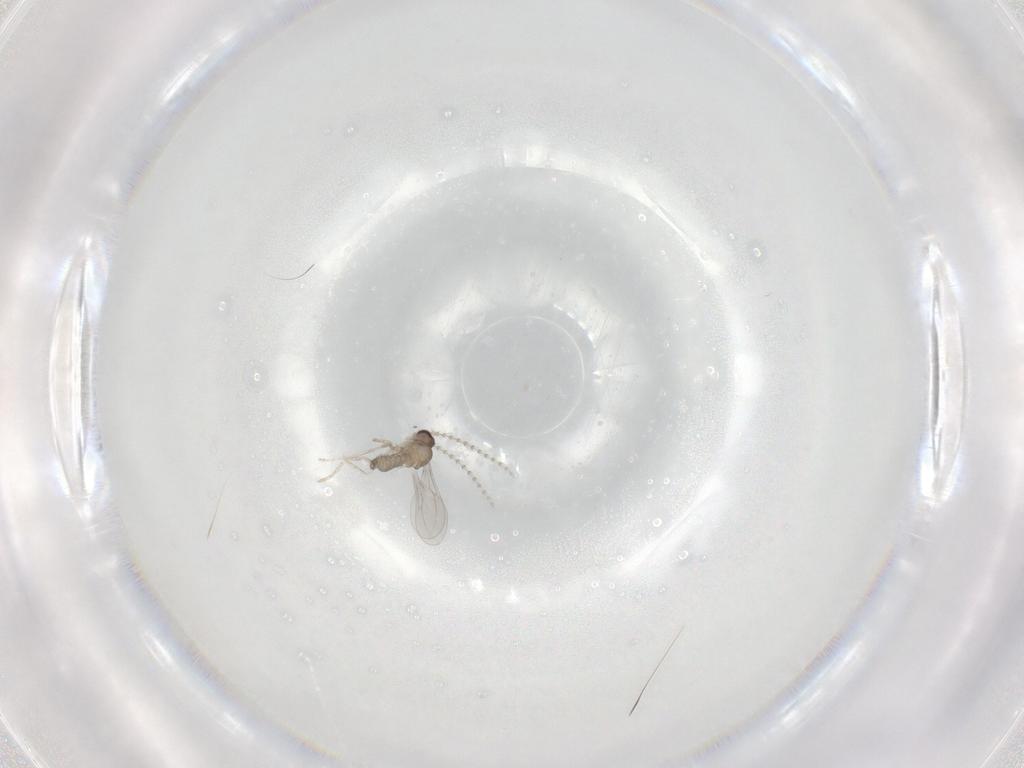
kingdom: Animalia
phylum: Arthropoda
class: Insecta
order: Diptera
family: Cecidomyiidae
